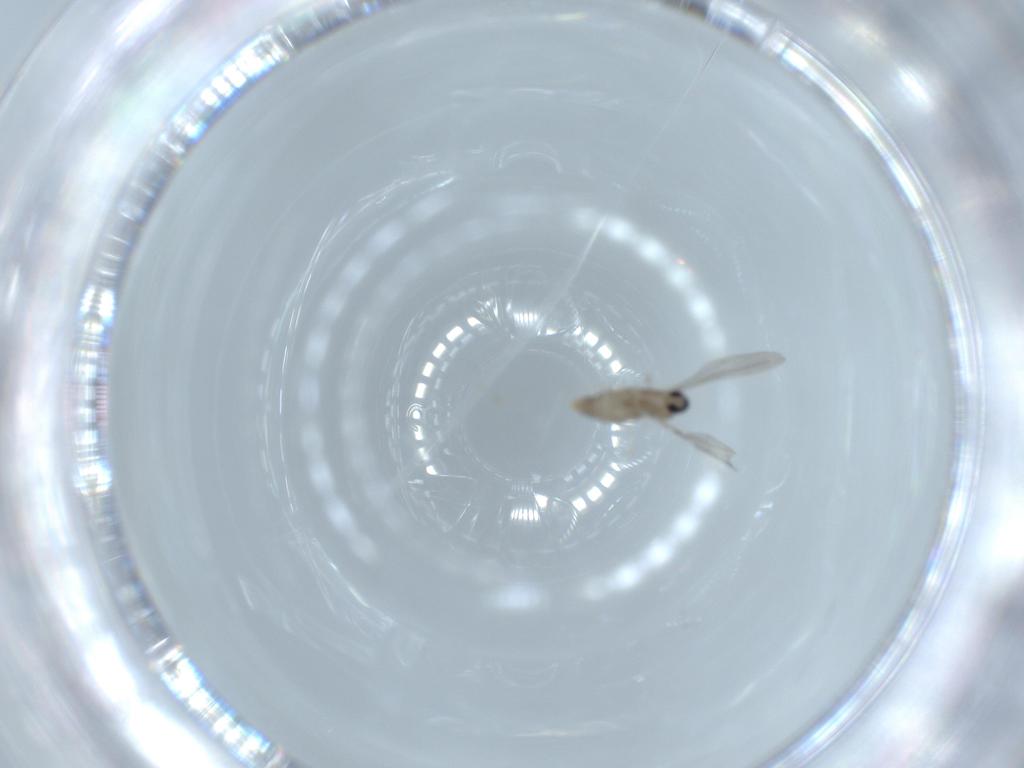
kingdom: Animalia
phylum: Arthropoda
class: Insecta
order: Diptera
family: Cecidomyiidae
